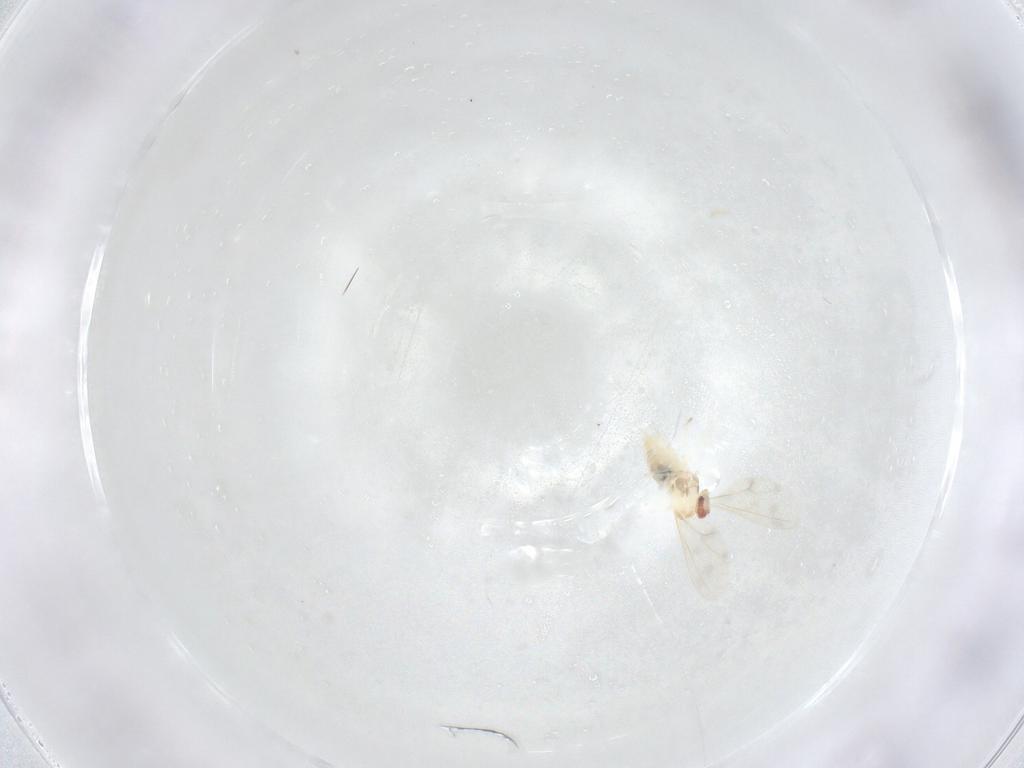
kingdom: Animalia
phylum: Arthropoda
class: Insecta
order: Diptera
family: Cecidomyiidae
